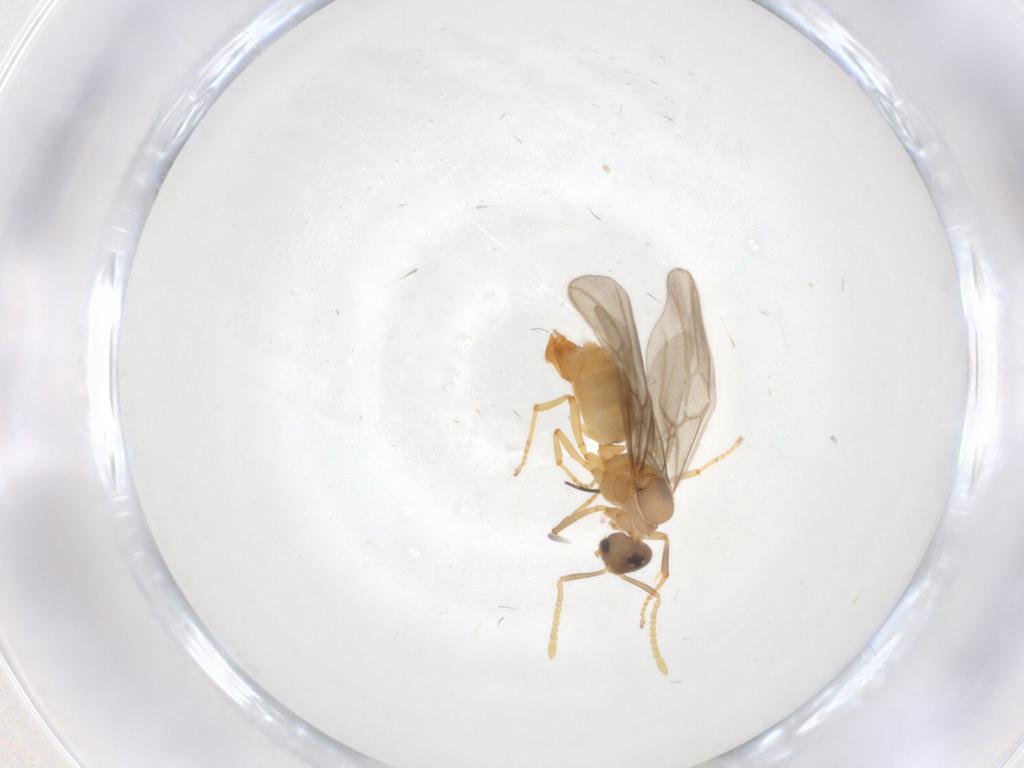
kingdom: Animalia
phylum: Arthropoda
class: Insecta
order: Hymenoptera
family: Formicidae
